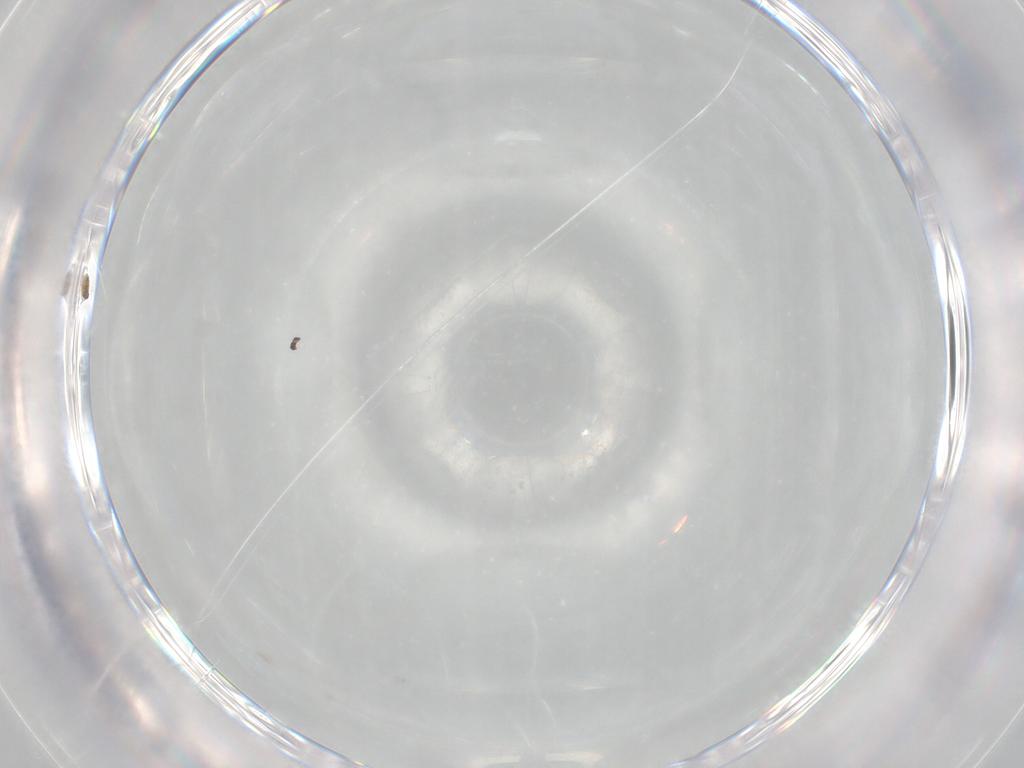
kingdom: Animalia
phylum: Arthropoda
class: Insecta
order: Hymenoptera
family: Mymaridae
